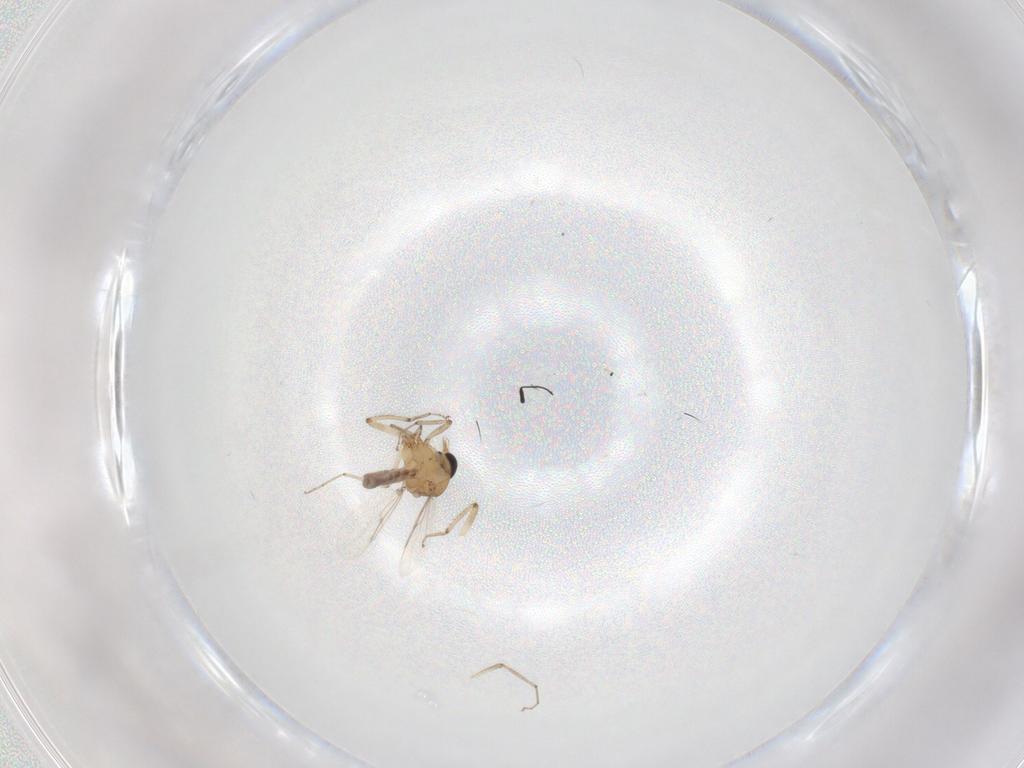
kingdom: Animalia
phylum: Arthropoda
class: Insecta
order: Diptera
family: Ceratopogonidae
